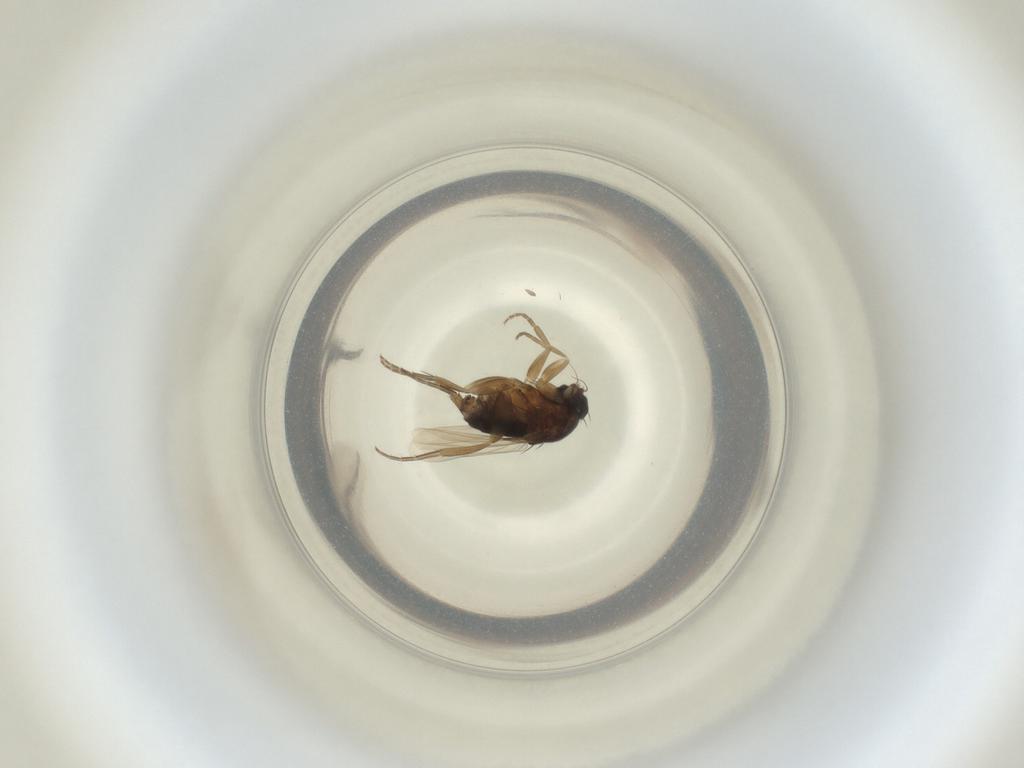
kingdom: Animalia
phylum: Arthropoda
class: Insecta
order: Diptera
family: Phoridae
